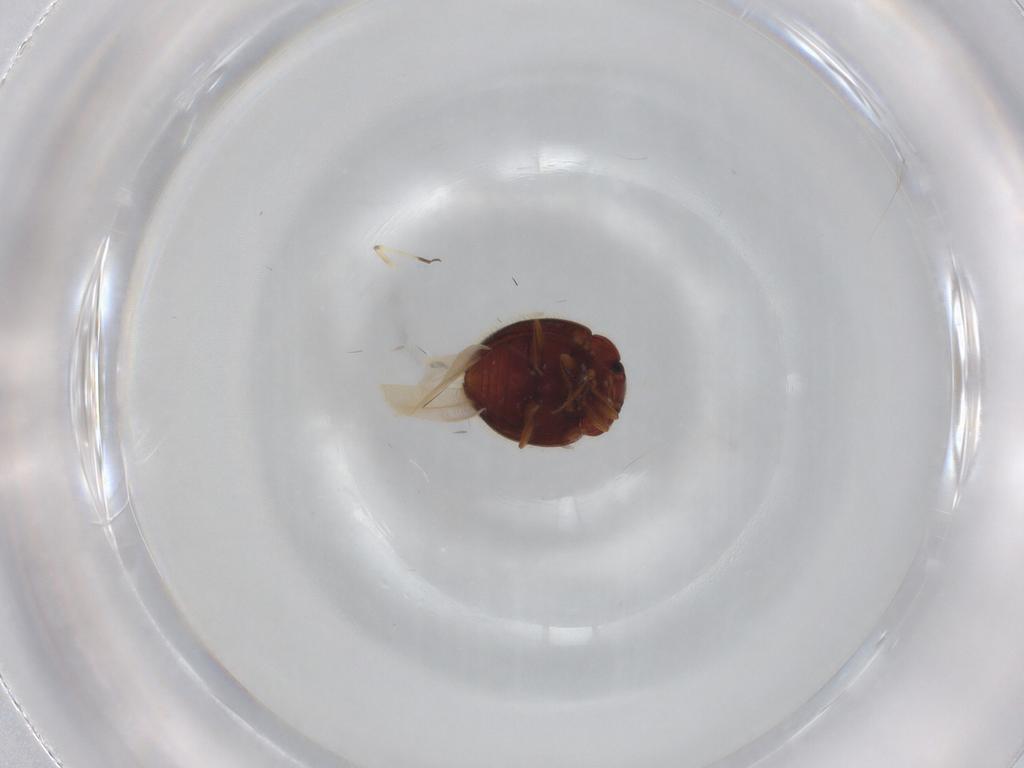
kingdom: Animalia
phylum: Arthropoda
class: Insecta
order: Coleoptera
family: Anamorphidae
